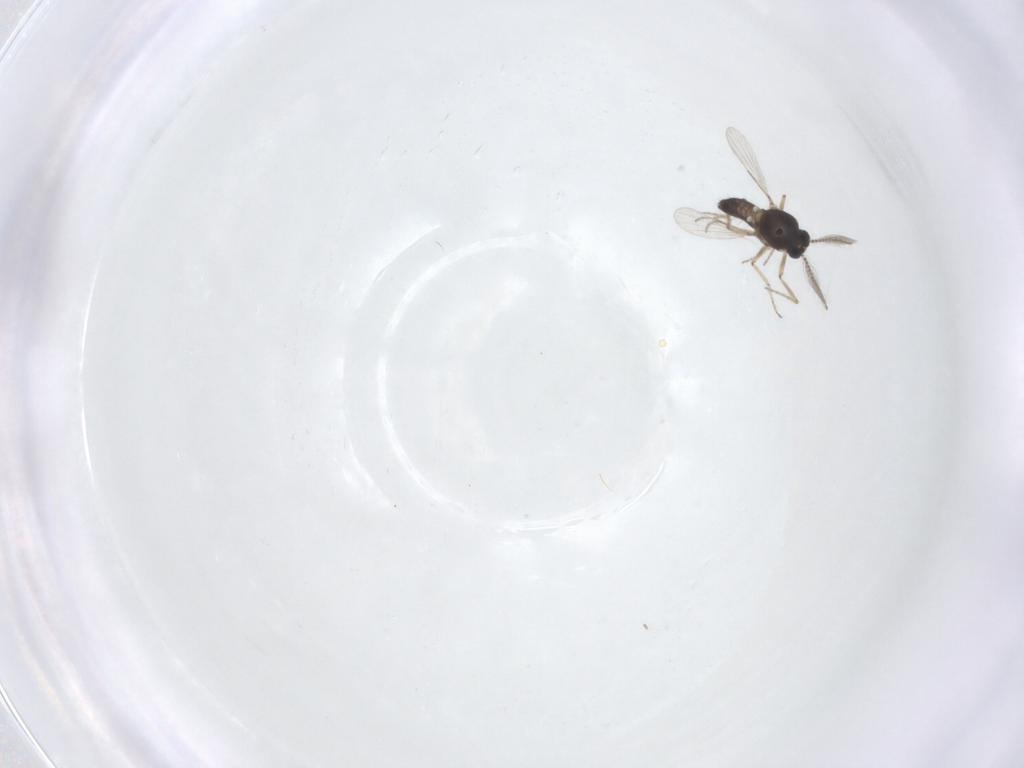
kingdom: Animalia
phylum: Arthropoda
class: Insecta
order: Diptera
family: Ceratopogonidae
